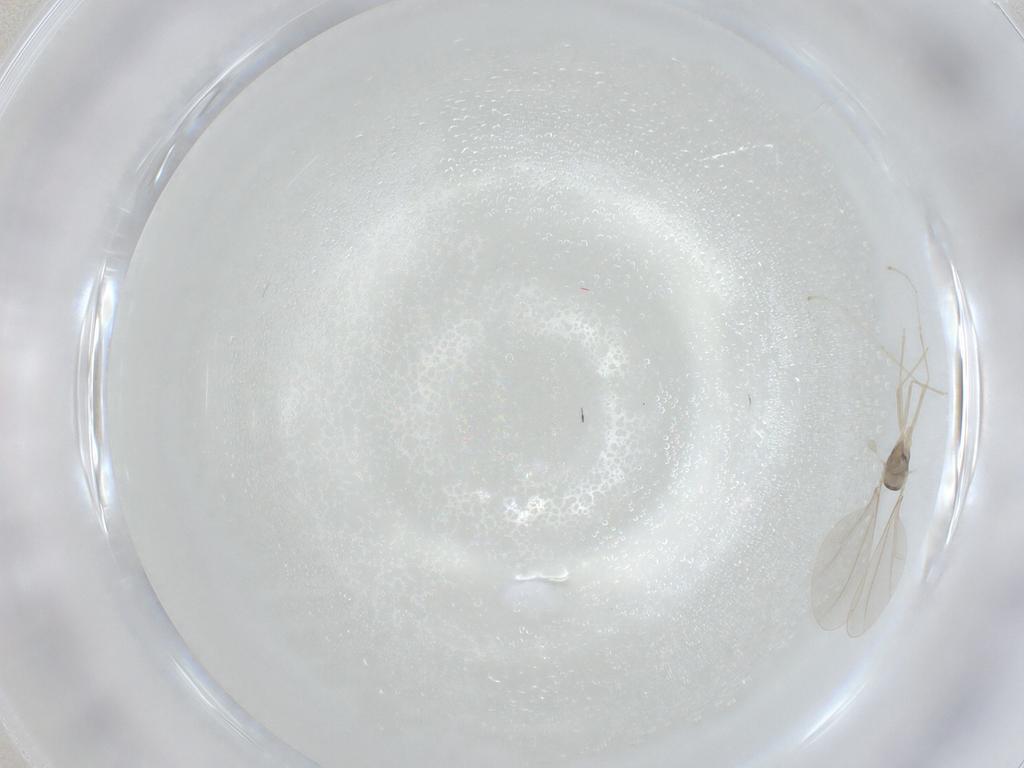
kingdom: Animalia
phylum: Arthropoda
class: Insecta
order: Diptera
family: Cecidomyiidae
